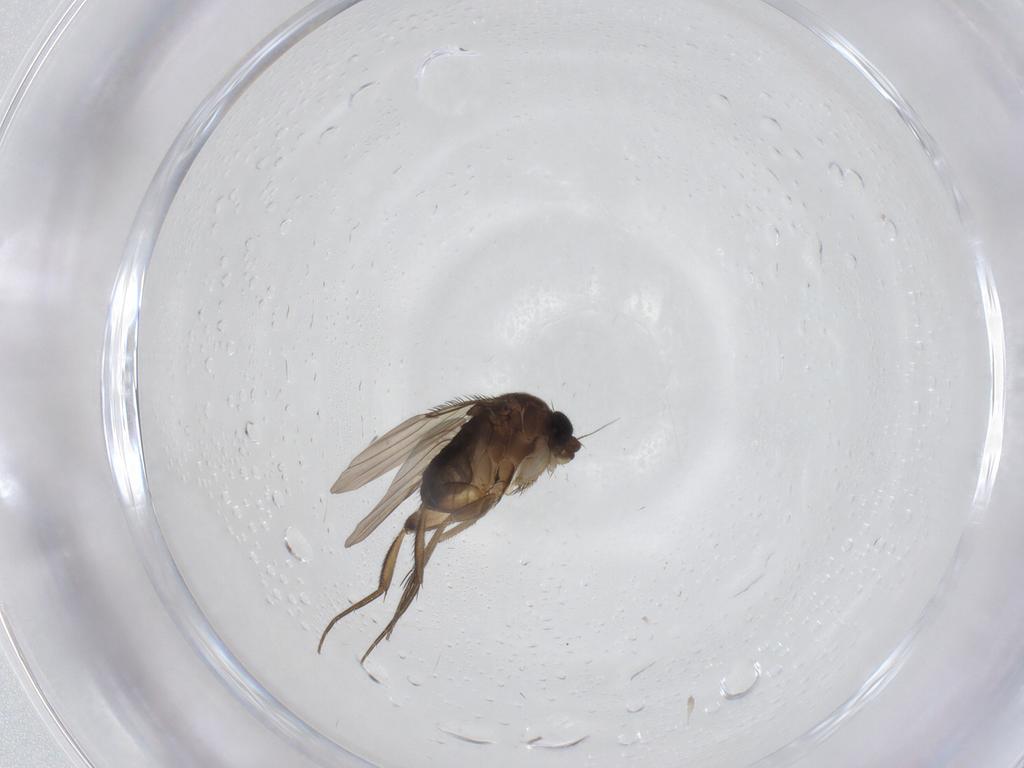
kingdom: Animalia
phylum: Arthropoda
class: Insecta
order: Diptera
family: Phoridae
